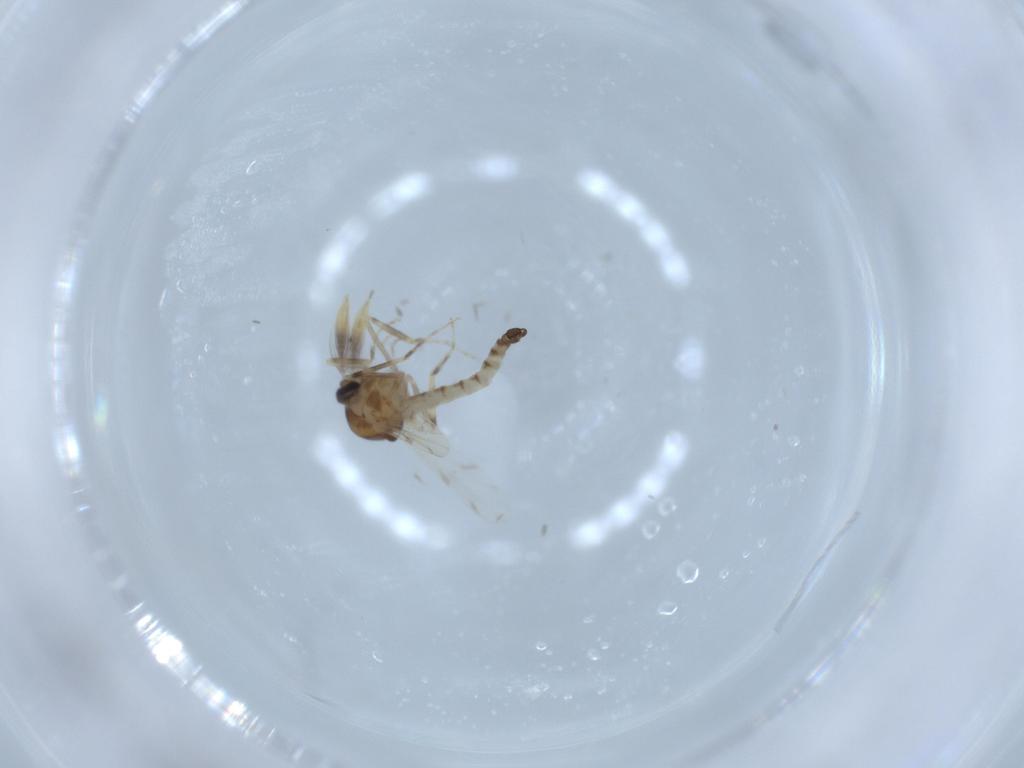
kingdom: Animalia
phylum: Arthropoda
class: Insecta
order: Diptera
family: Ceratopogonidae
